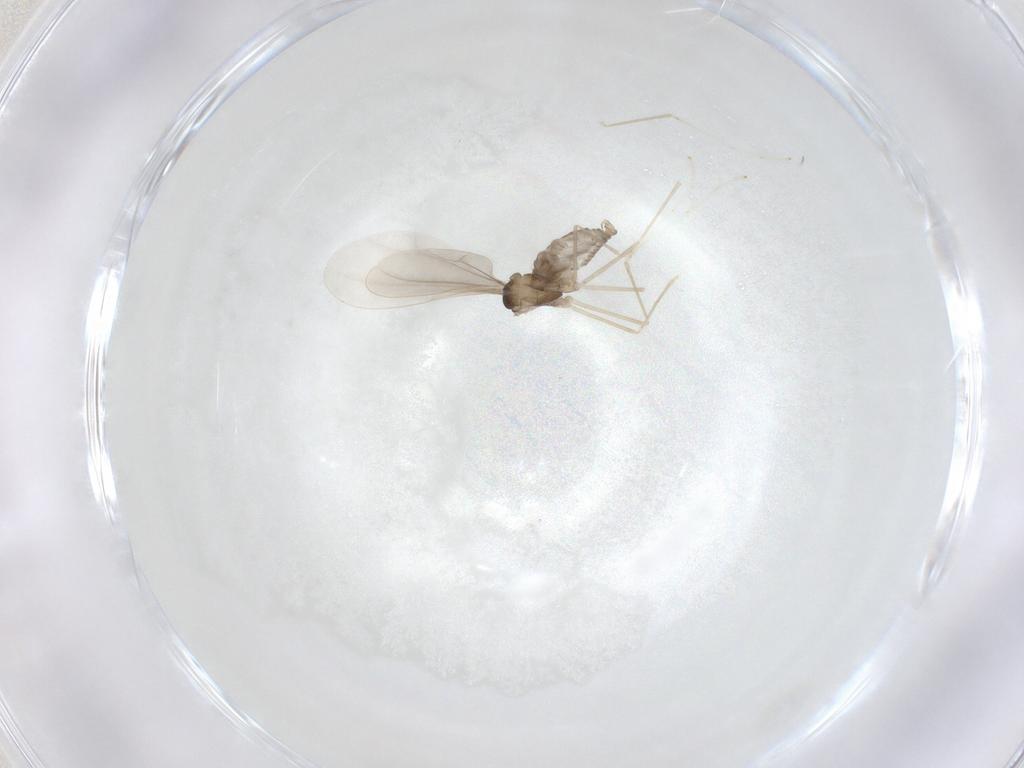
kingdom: Animalia
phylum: Arthropoda
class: Insecta
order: Diptera
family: Cecidomyiidae
